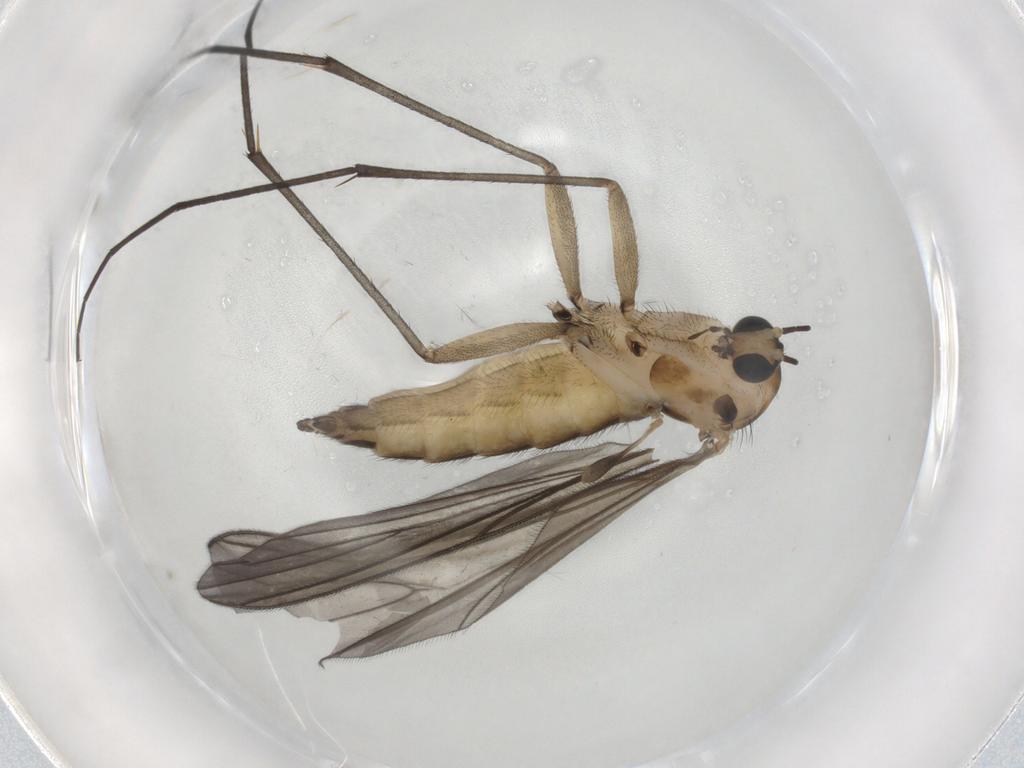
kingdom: Animalia
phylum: Arthropoda
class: Insecta
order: Diptera
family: Sciaridae
